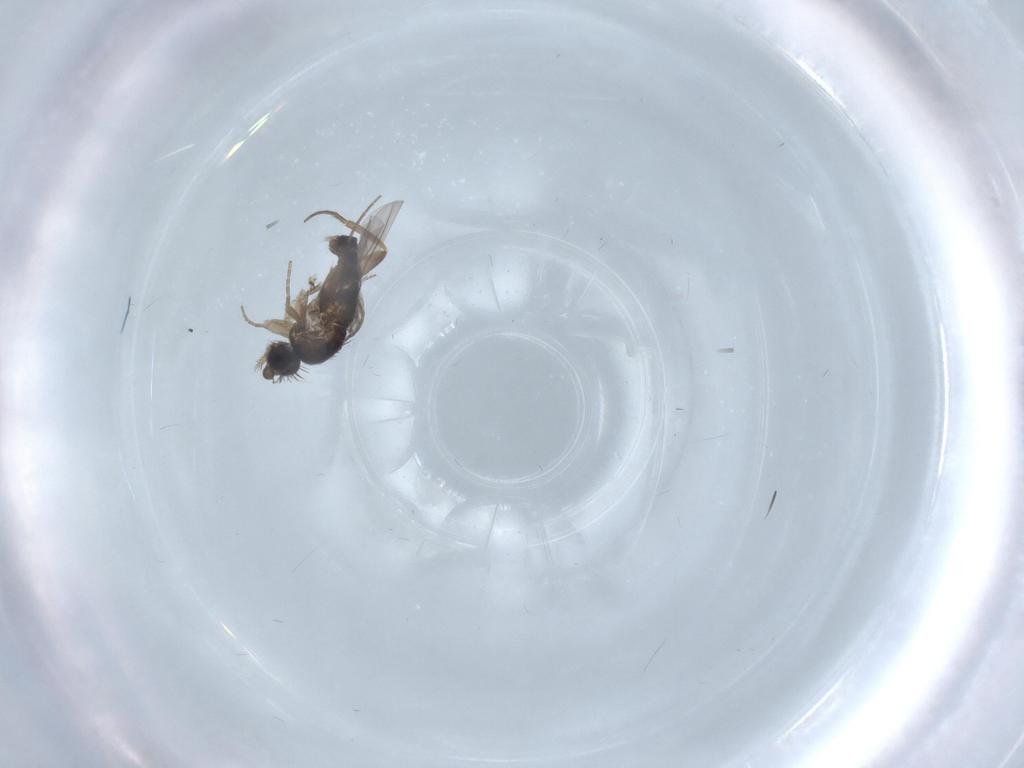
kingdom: Animalia
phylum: Arthropoda
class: Insecta
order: Diptera
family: Phoridae
